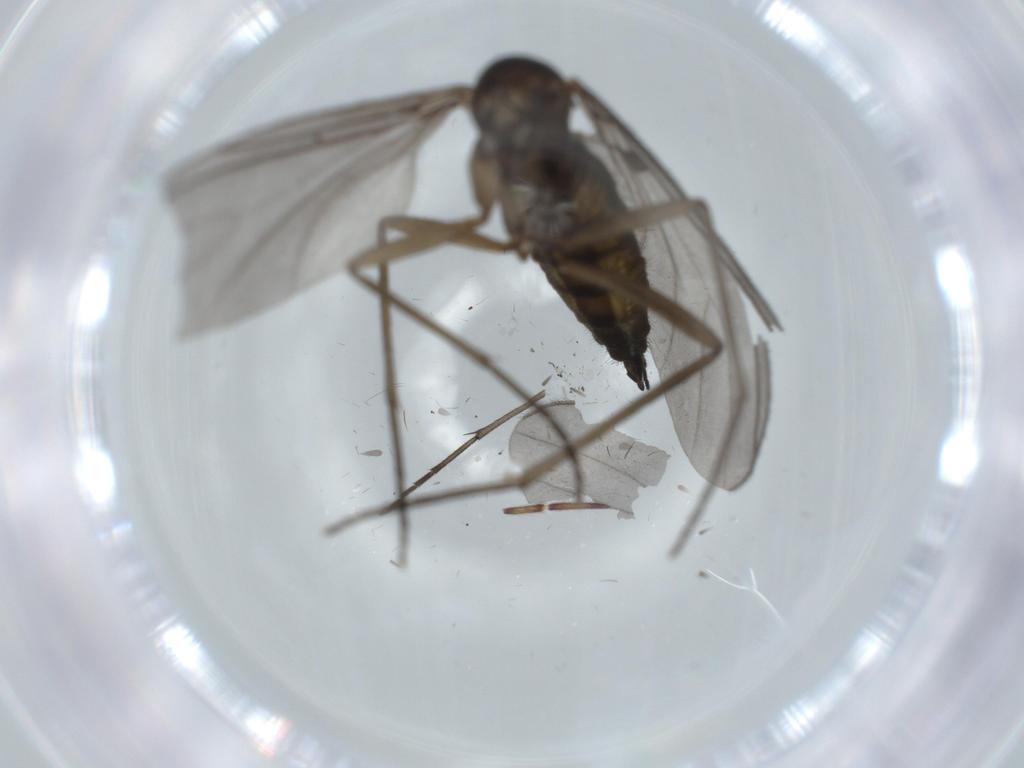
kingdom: Animalia
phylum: Arthropoda
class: Insecta
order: Diptera
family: Sciaridae
